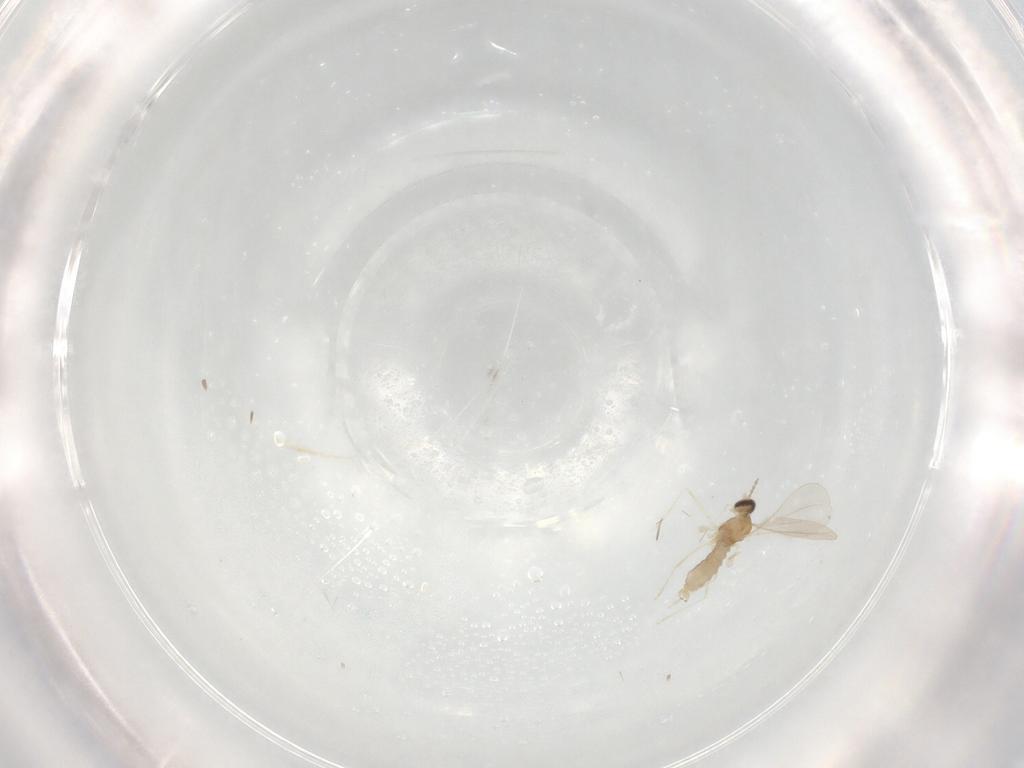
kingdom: Animalia
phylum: Arthropoda
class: Insecta
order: Diptera
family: Cecidomyiidae
